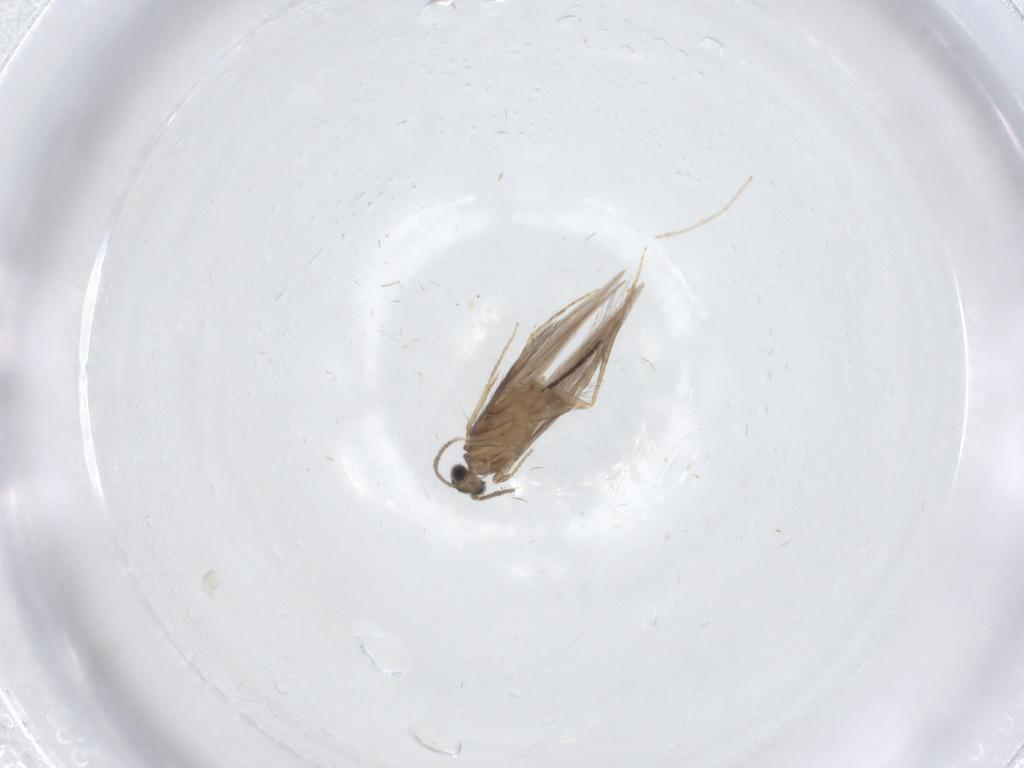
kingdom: Animalia
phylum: Arthropoda
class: Insecta
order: Trichoptera
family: Hydroptilidae
